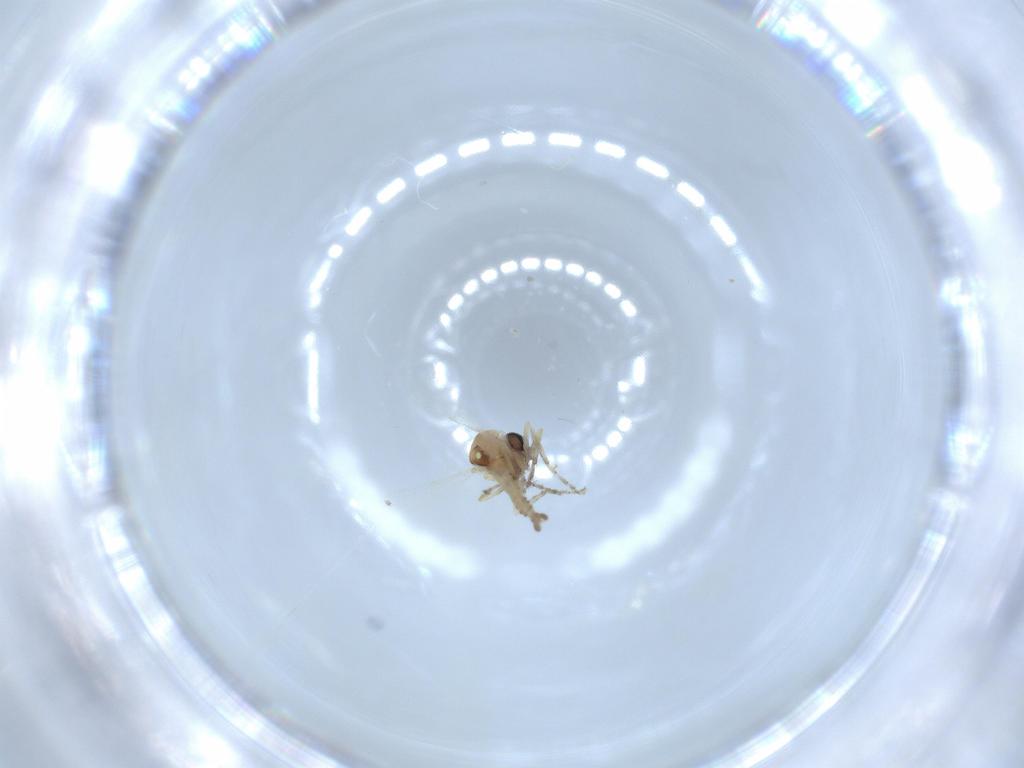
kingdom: Animalia
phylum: Arthropoda
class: Insecta
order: Diptera
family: Ceratopogonidae
